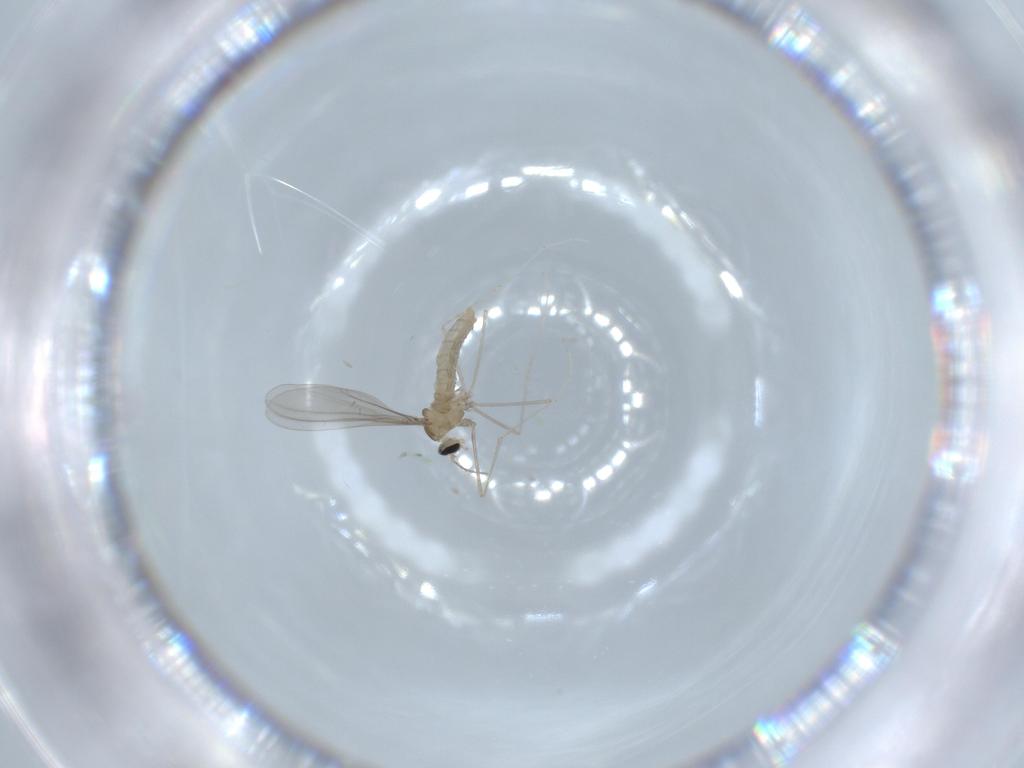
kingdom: Animalia
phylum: Arthropoda
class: Insecta
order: Diptera
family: Cecidomyiidae
